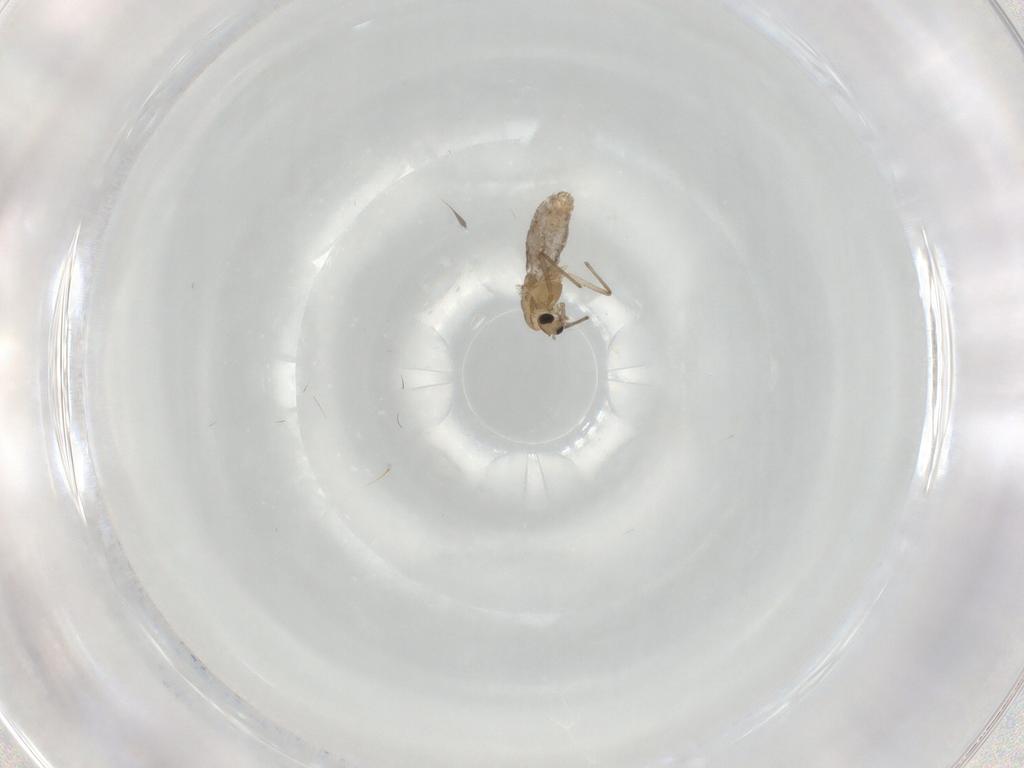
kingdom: Animalia
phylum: Arthropoda
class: Insecta
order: Diptera
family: Chironomidae
